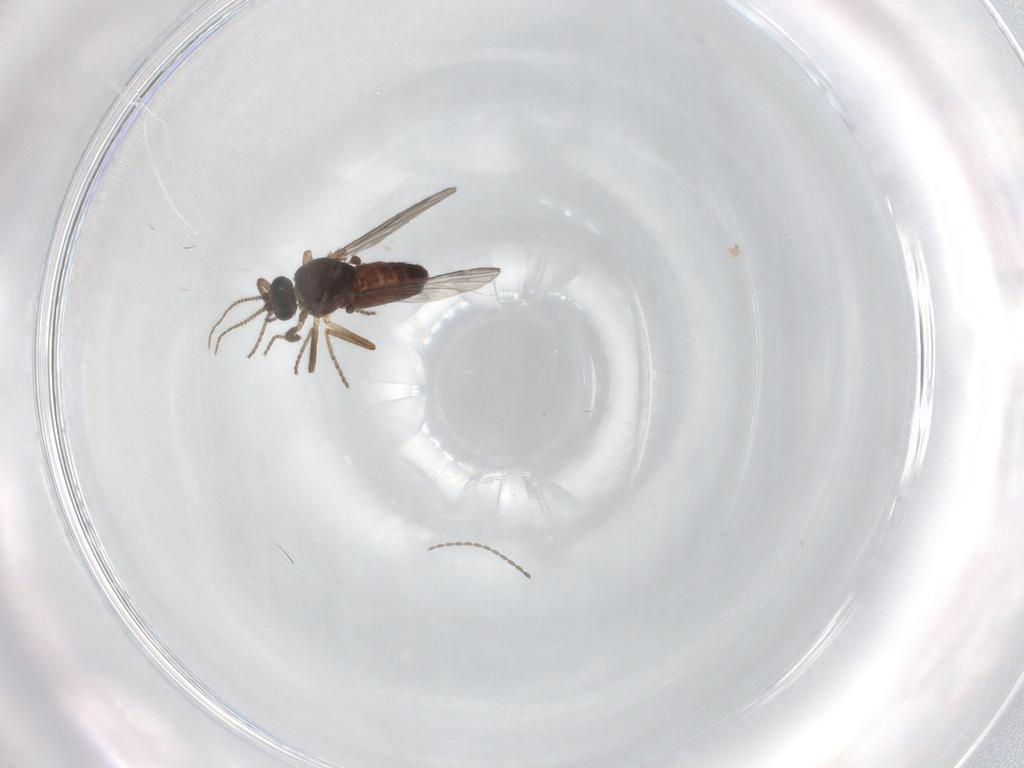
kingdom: Animalia
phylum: Arthropoda
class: Insecta
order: Diptera
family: Ceratopogonidae
